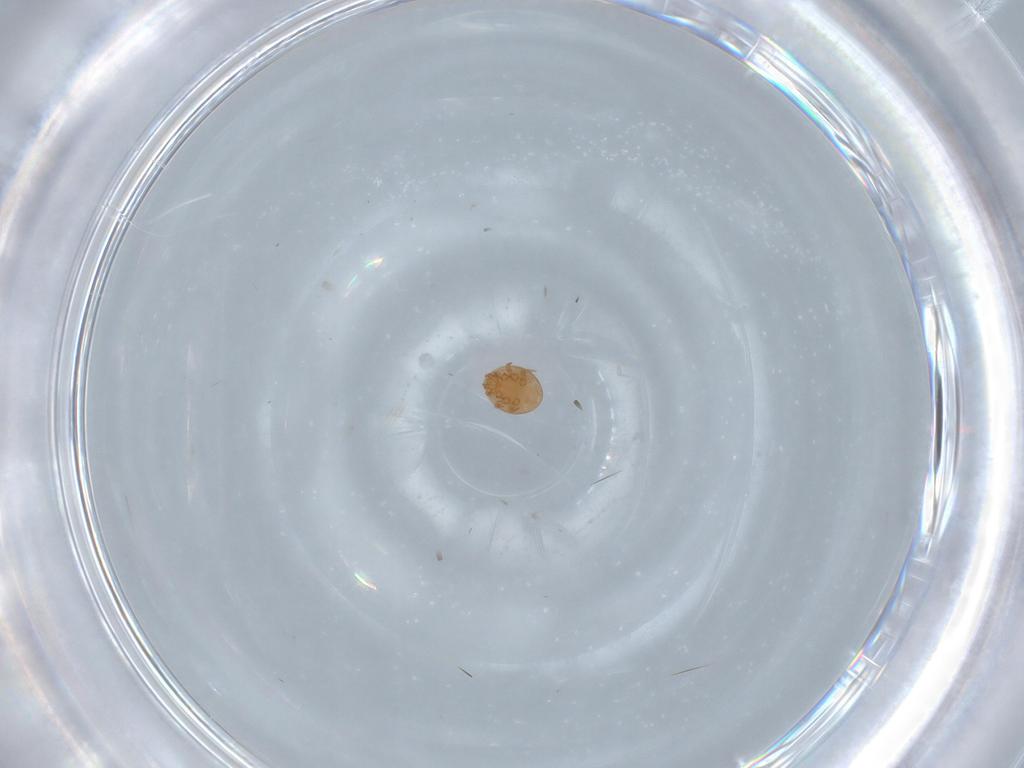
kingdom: Animalia
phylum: Arthropoda
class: Arachnida
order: Mesostigmata
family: Trematuridae
